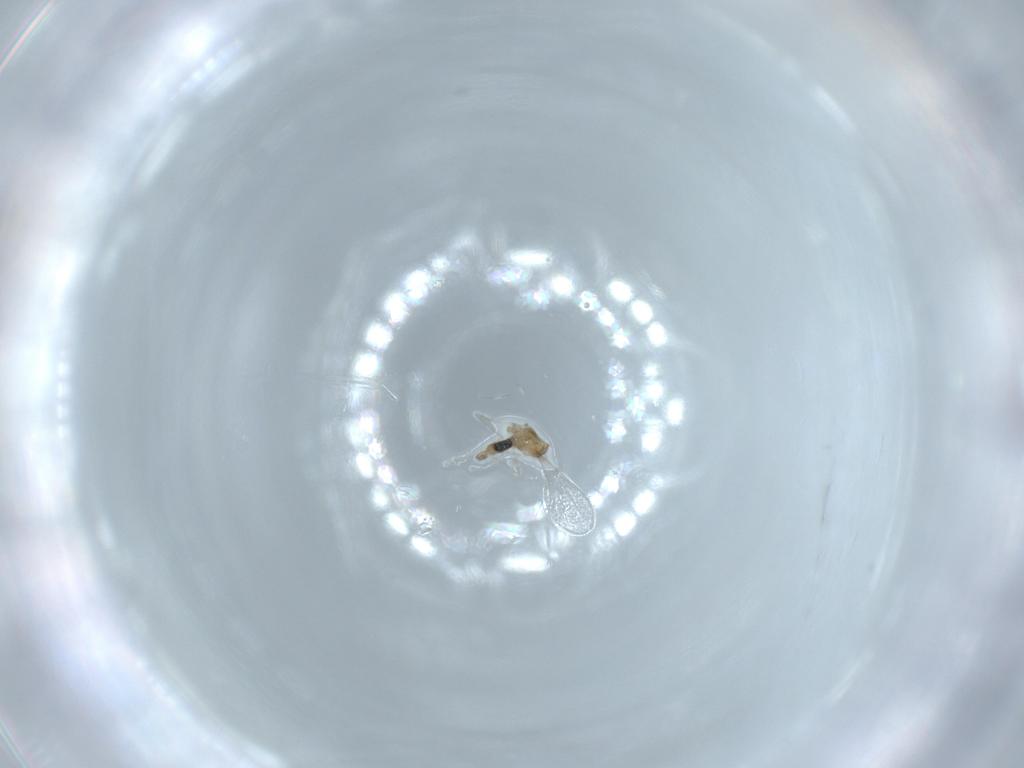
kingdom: Animalia
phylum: Arthropoda
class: Insecta
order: Diptera
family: Cecidomyiidae
